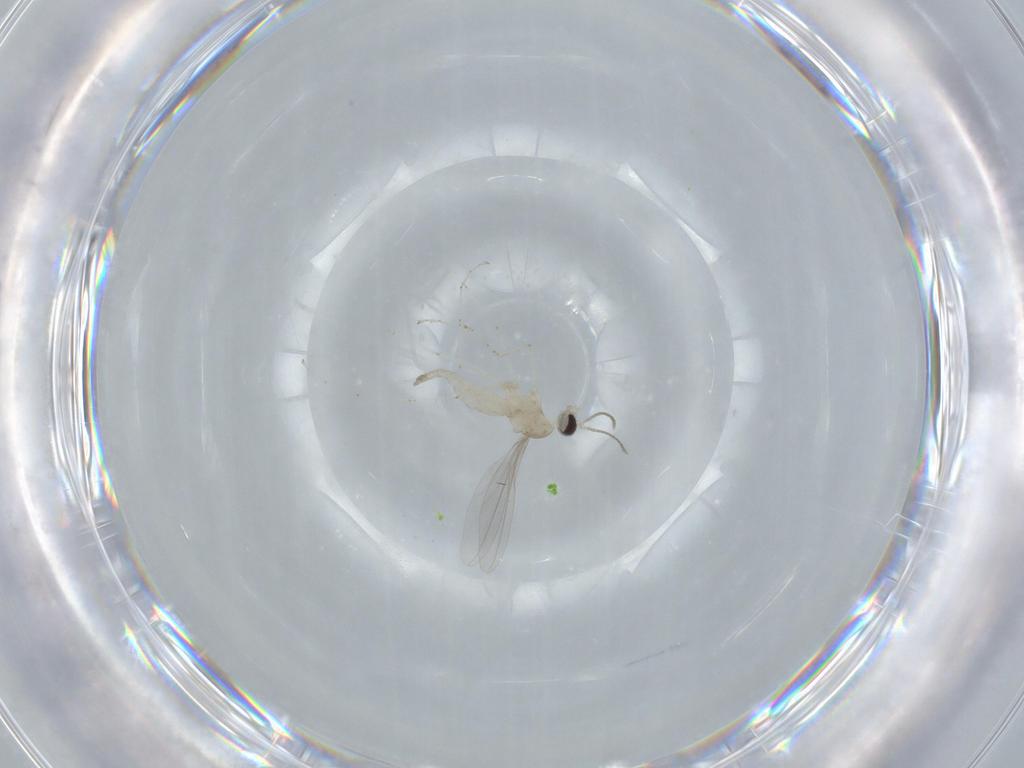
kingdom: Animalia
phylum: Arthropoda
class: Insecta
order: Diptera
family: Cecidomyiidae
